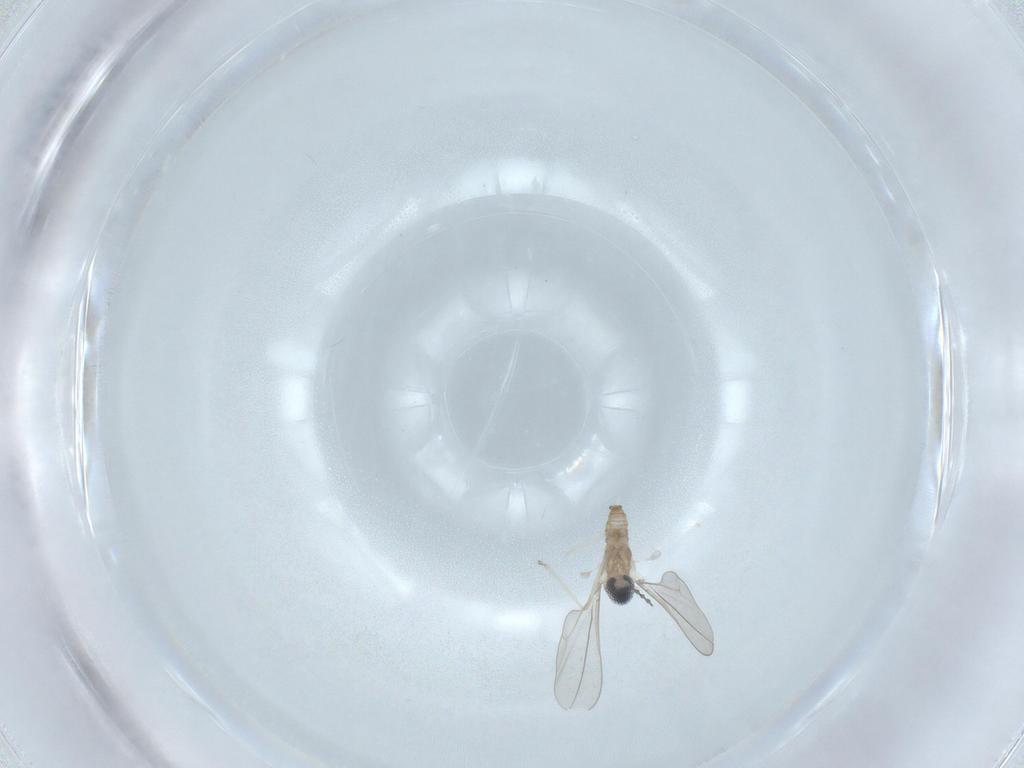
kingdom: Animalia
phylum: Arthropoda
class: Insecta
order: Diptera
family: Cecidomyiidae
